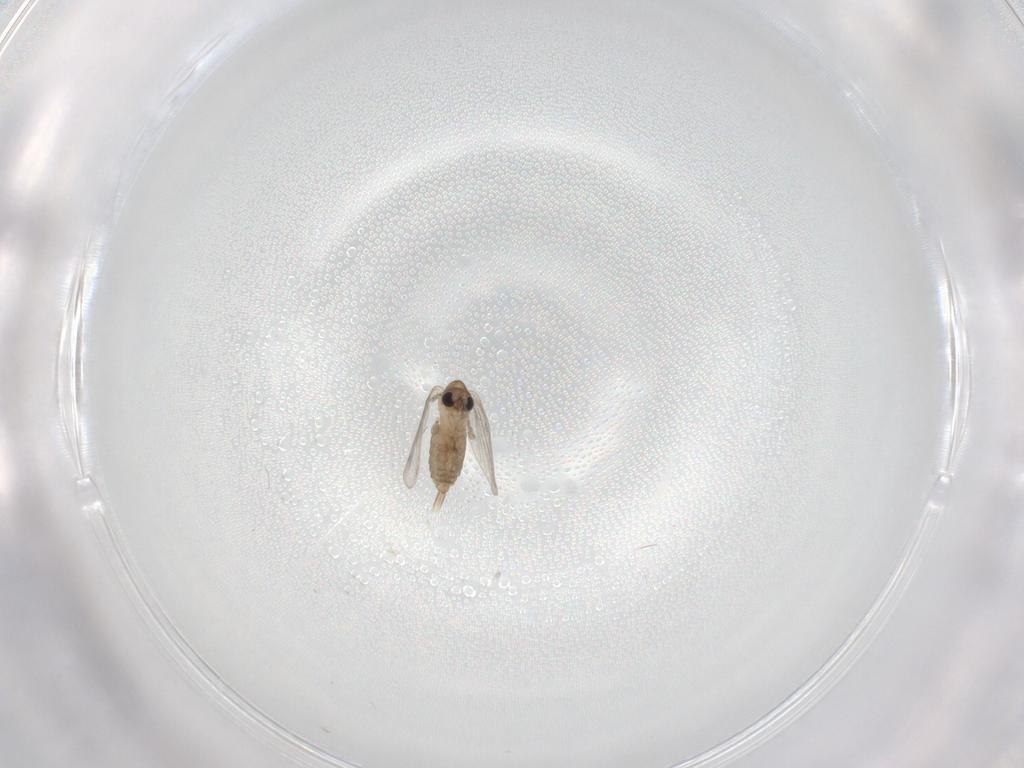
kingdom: Animalia
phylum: Arthropoda
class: Insecta
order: Diptera
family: Psychodidae
